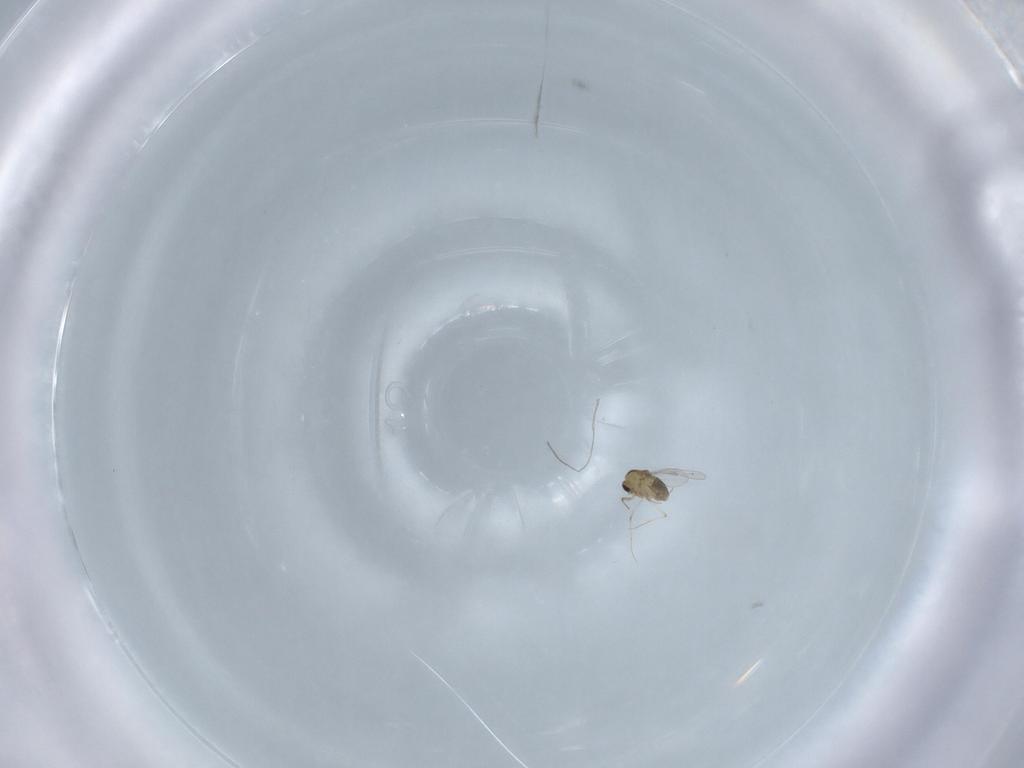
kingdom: Animalia
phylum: Arthropoda
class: Insecta
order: Diptera
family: Chironomidae
